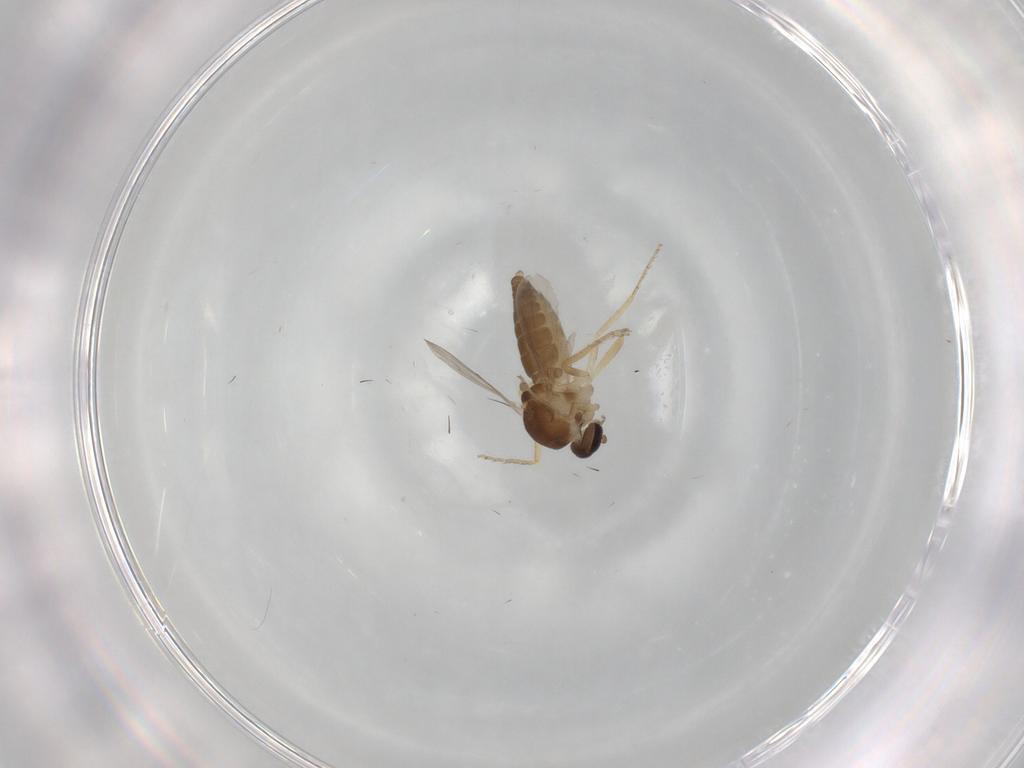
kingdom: Animalia
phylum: Arthropoda
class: Insecta
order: Diptera
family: Ceratopogonidae
